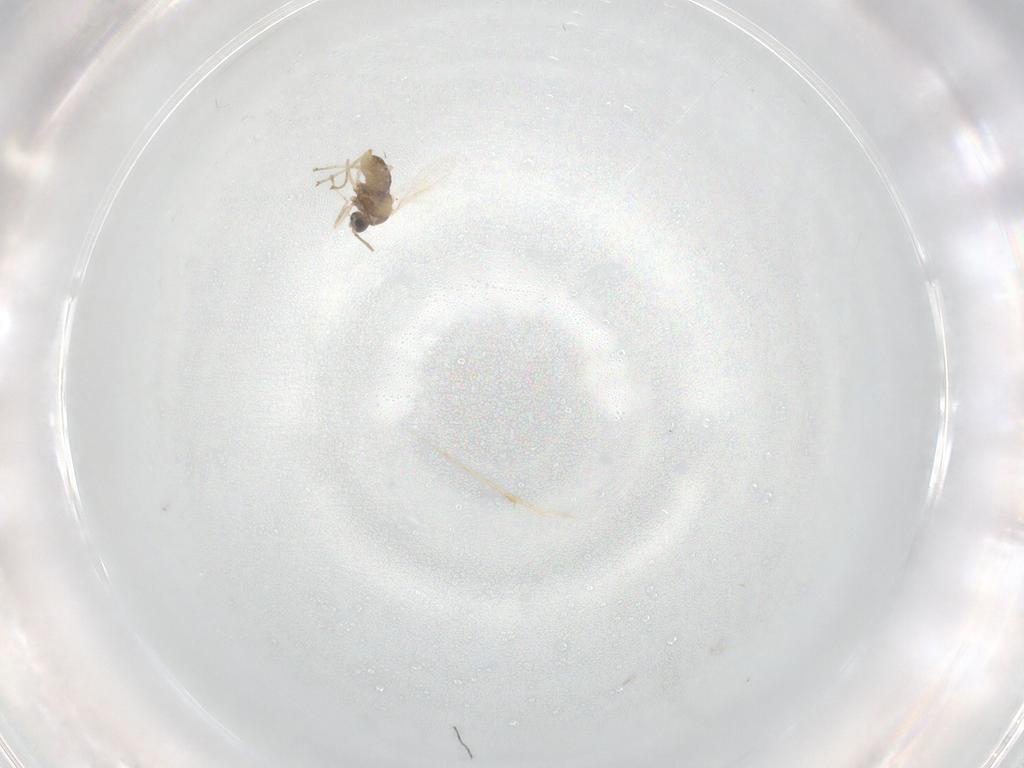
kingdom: Animalia
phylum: Arthropoda
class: Insecta
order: Diptera
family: Cecidomyiidae
